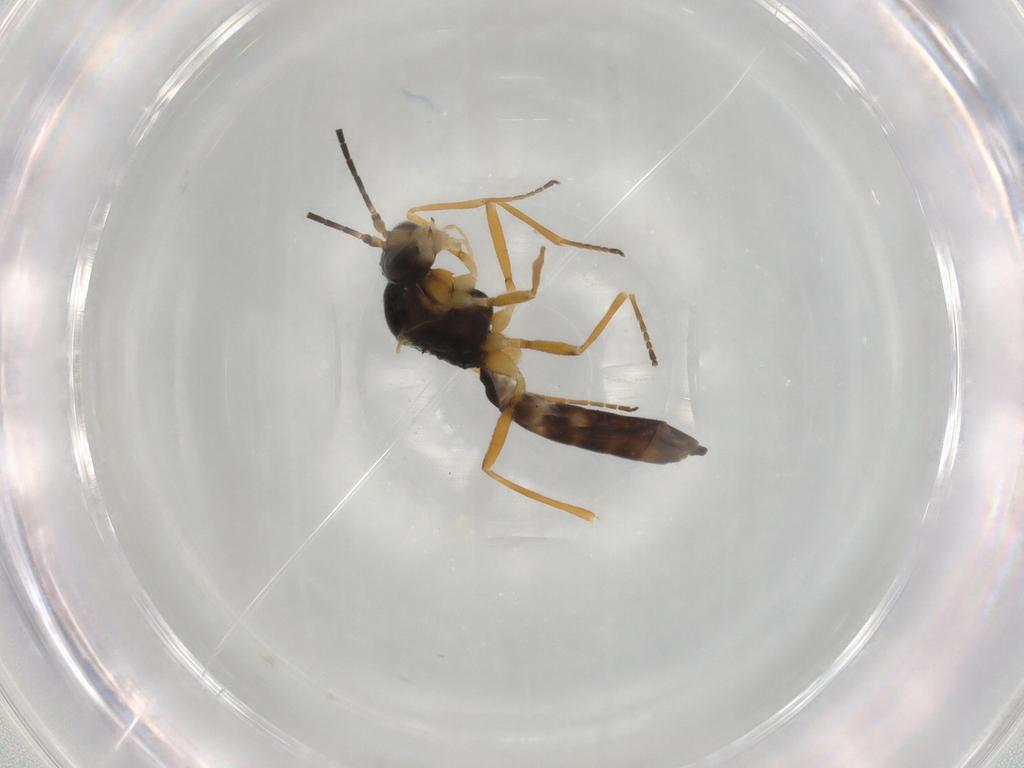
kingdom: Animalia
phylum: Arthropoda
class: Insecta
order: Hymenoptera
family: Braconidae
